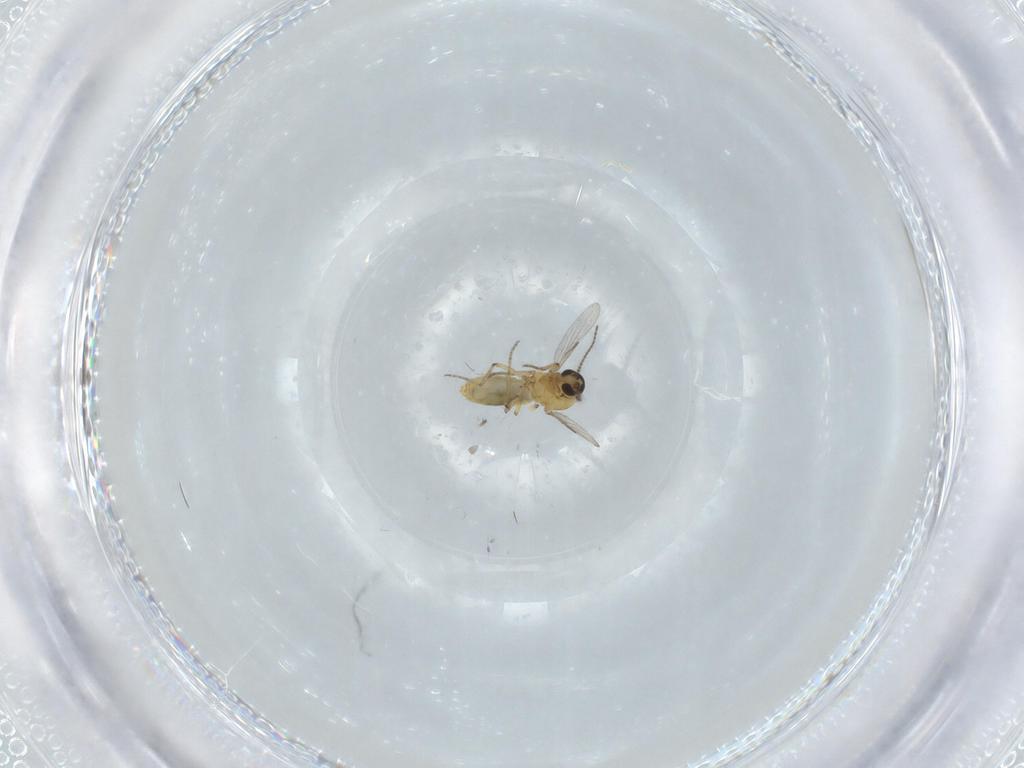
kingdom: Animalia
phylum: Arthropoda
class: Insecta
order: Diptera
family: Ceratopogonidae
